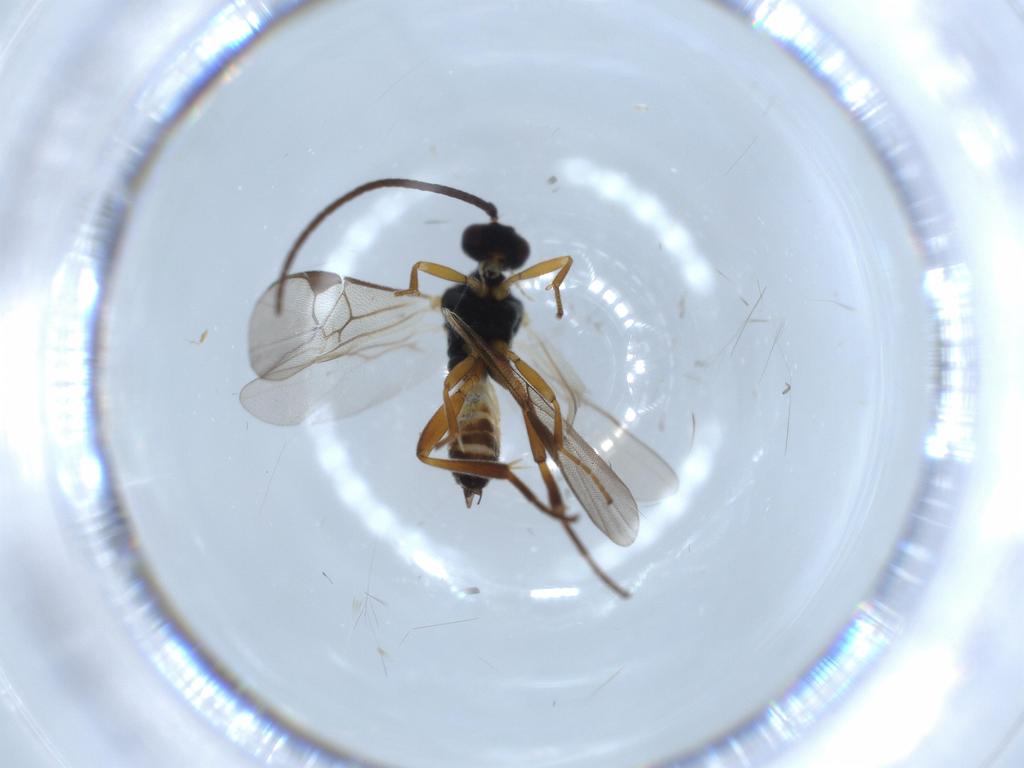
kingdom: Animalia
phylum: Arthropoda
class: Insecta
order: Hymenoptera
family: Braconidae
